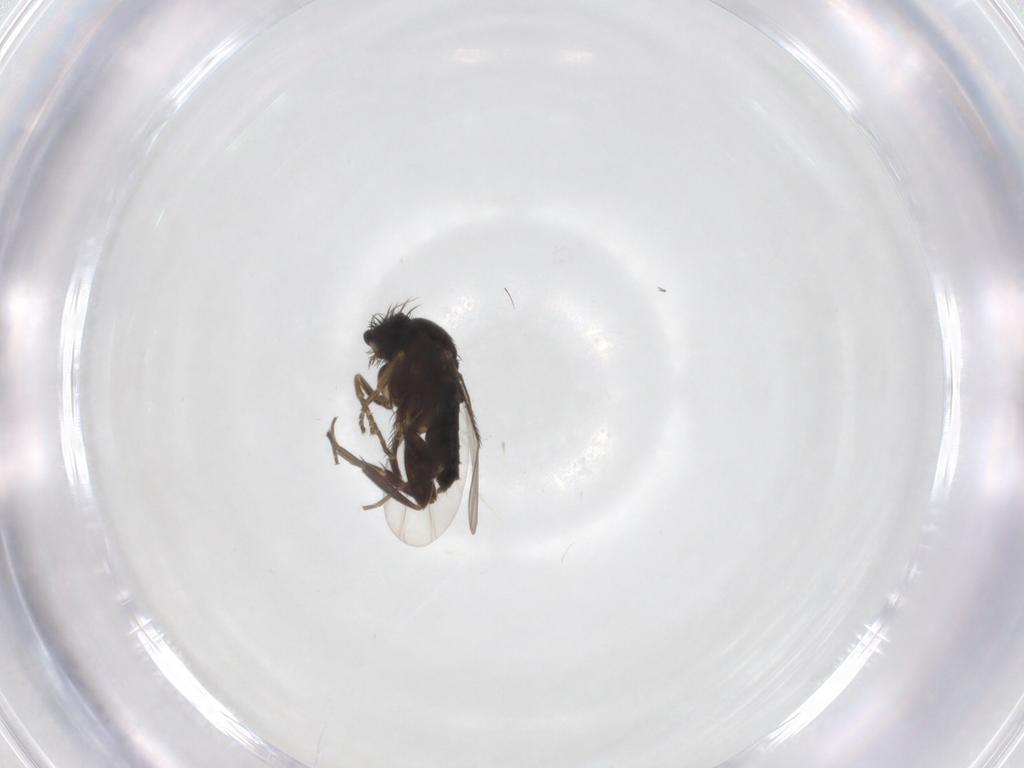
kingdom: Animalia
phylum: Arthropoda
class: Insecta
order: Diptera
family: Phoridae
